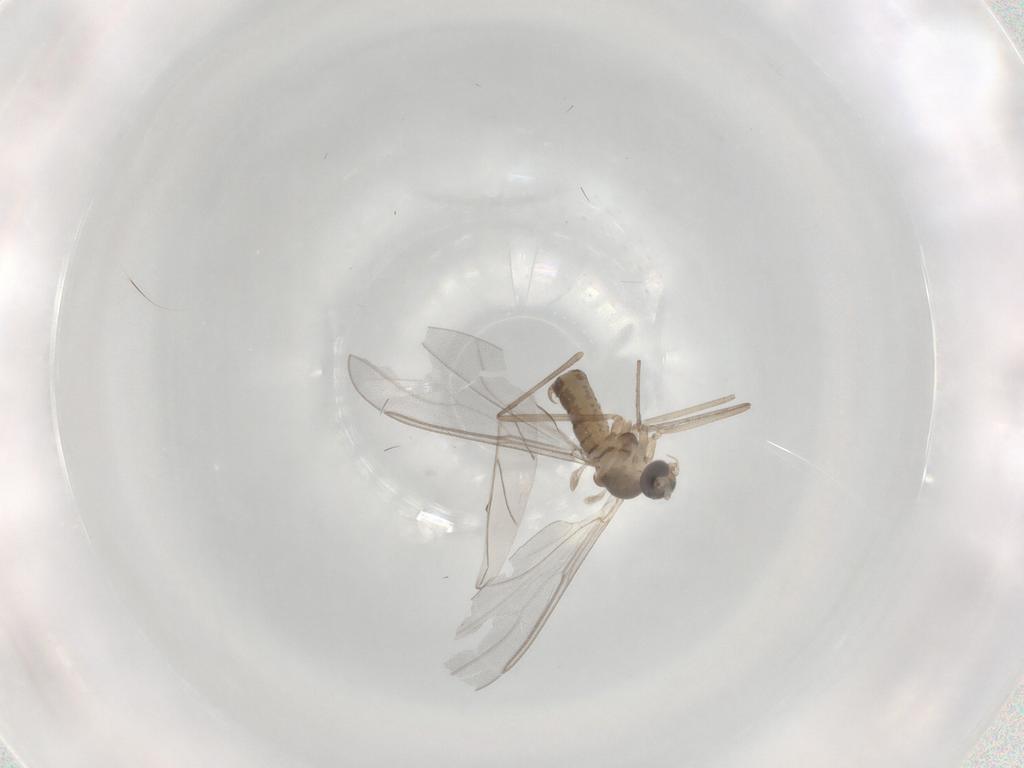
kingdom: Animalia
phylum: Arthropoda
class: Insecta
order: Diptera
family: Cecidomyiidae
